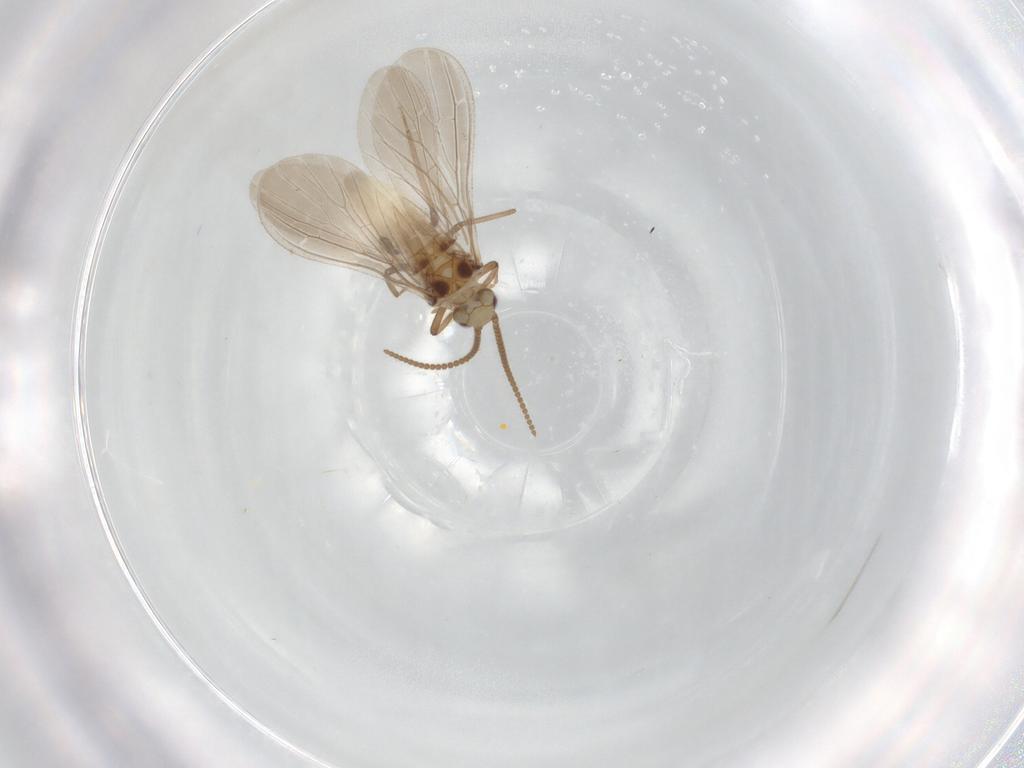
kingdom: Animalia
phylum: Arthropoda
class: Insecta
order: Neuroptera
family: Coniopterygidae
